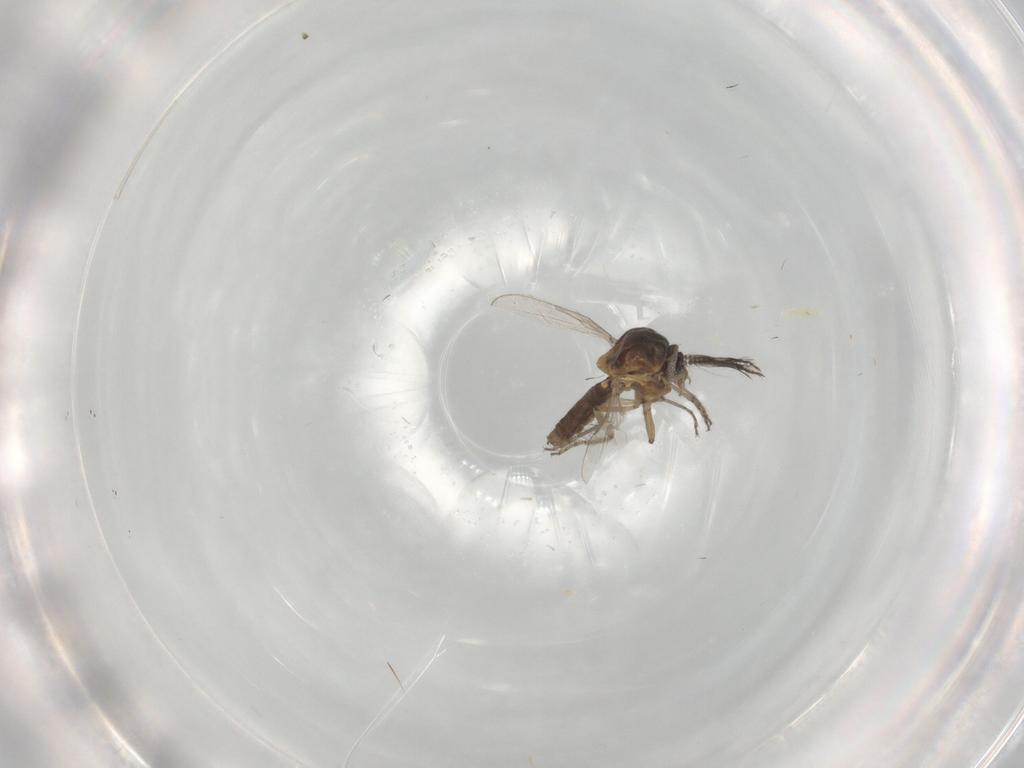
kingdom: Animalia
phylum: Arthropoda
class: Insecta
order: Diptera
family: Ceratopogonidae
